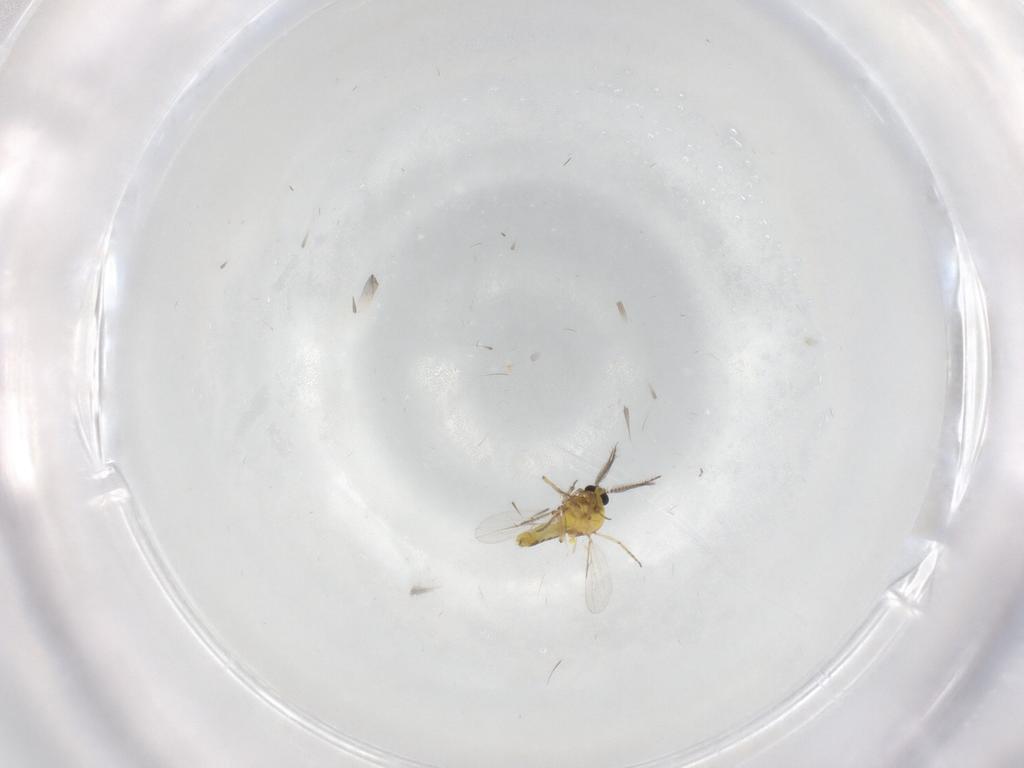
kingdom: Animalia
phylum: Arthropoda
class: Insecta
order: Diptera
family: Ceratopogonidae
